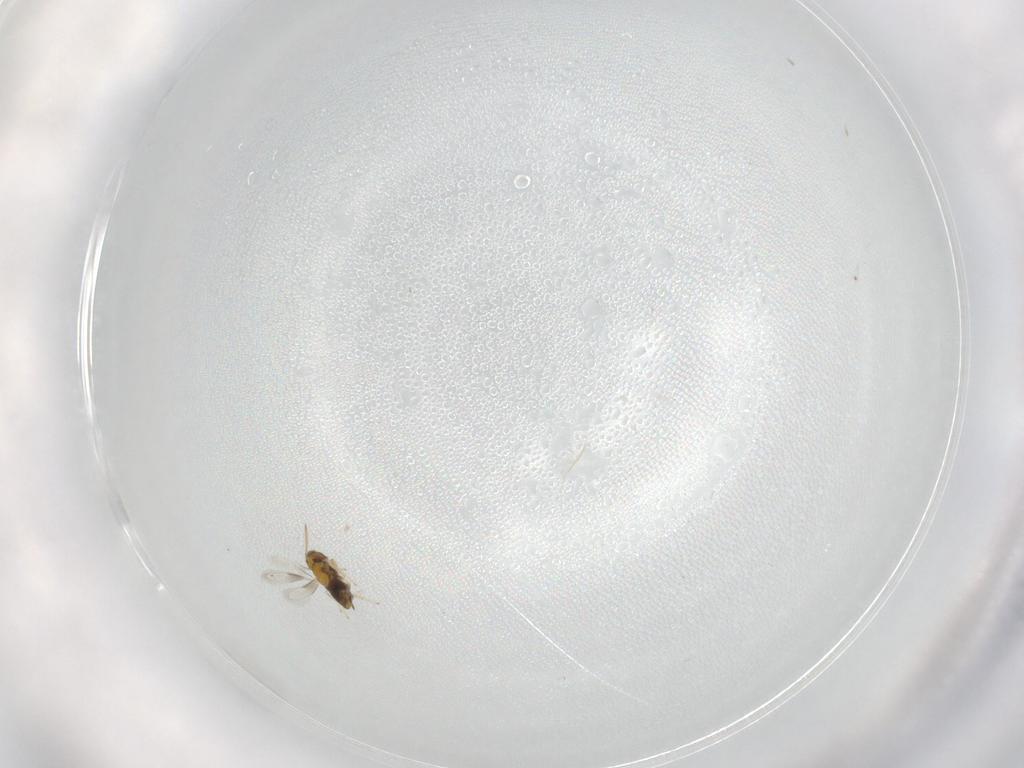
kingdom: Animalia
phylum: Arthropoda
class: Insecta
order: Hymenoptera
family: Aphelinidae
